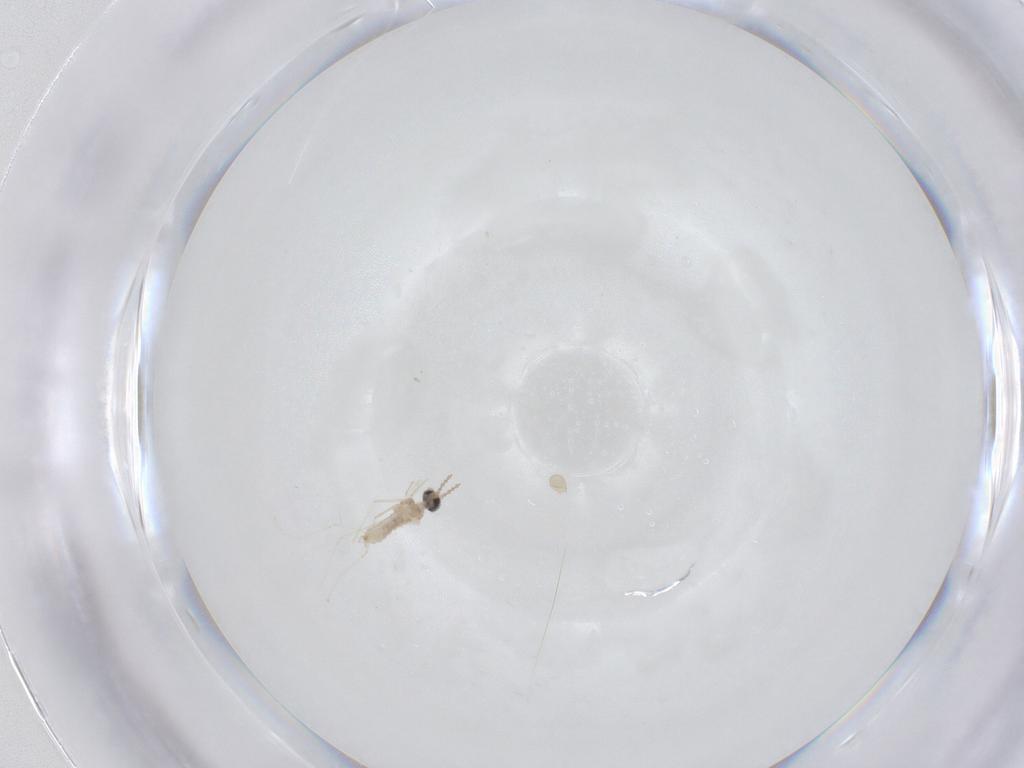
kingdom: Animalia
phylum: Arthropoda
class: Insecta
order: Diptera
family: Cecidomyiidae
